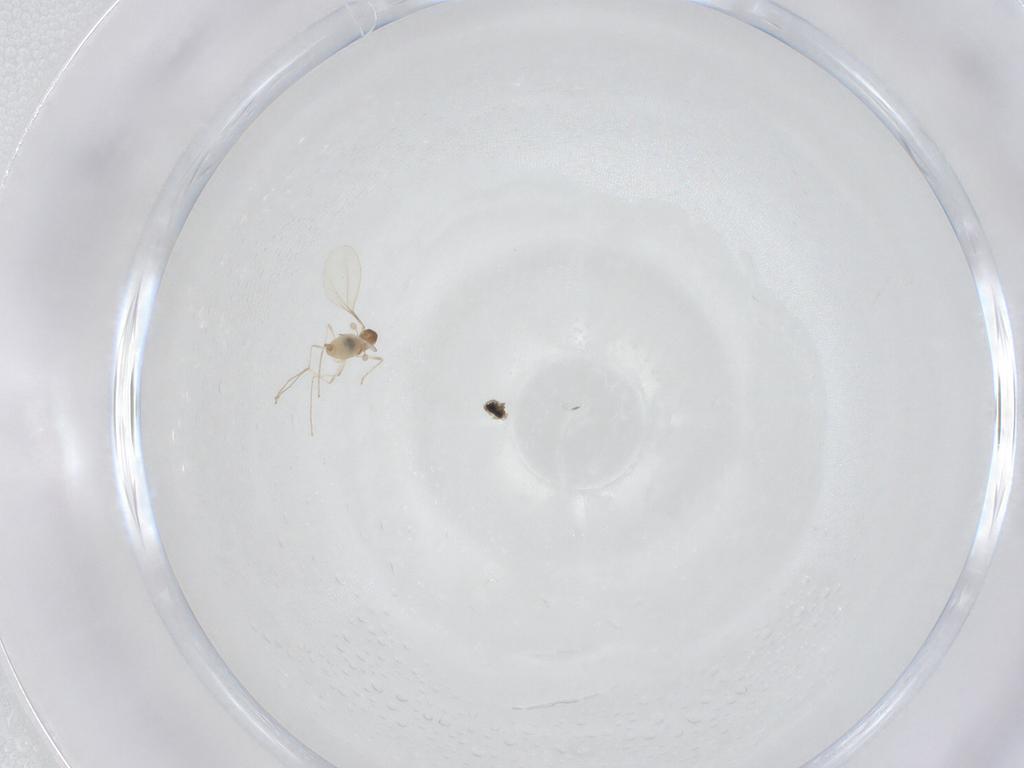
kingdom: Animalia
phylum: Arthropoda
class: Insecta
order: Diptera
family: Cecidomyiidae
